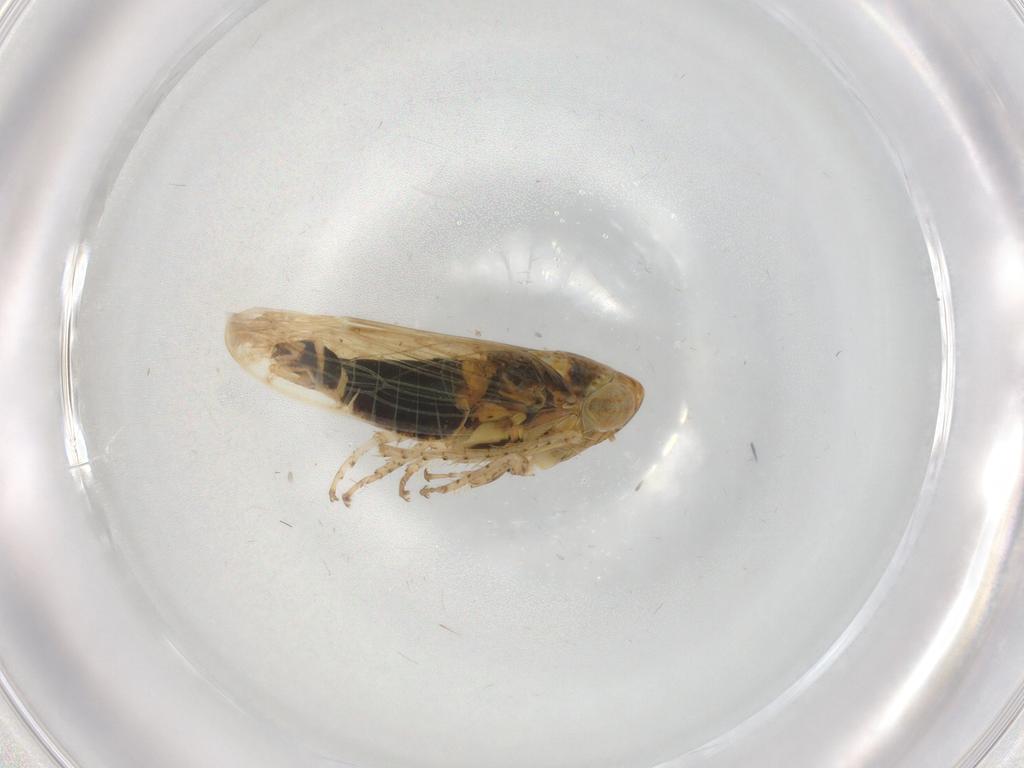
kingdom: Animalia
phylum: Arthropoda
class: Insecta
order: Hemiptera
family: Cicadellidae
